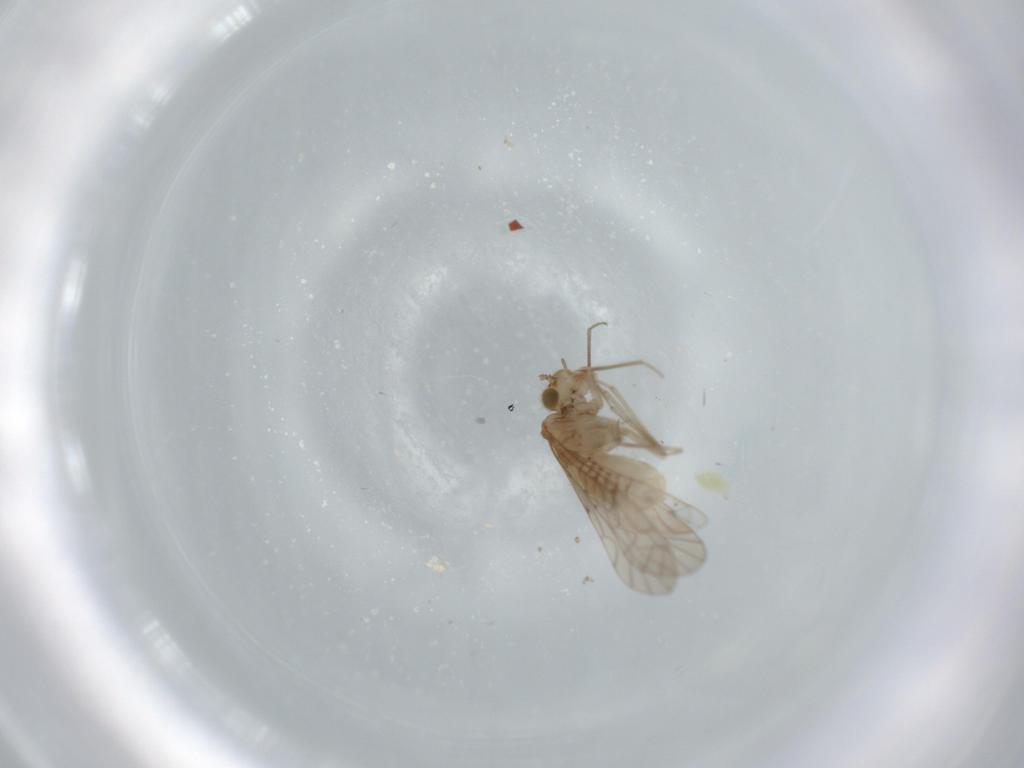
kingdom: Animalia
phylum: Arthropoda
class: Insecta
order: Psocodea
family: Lachesillidae
